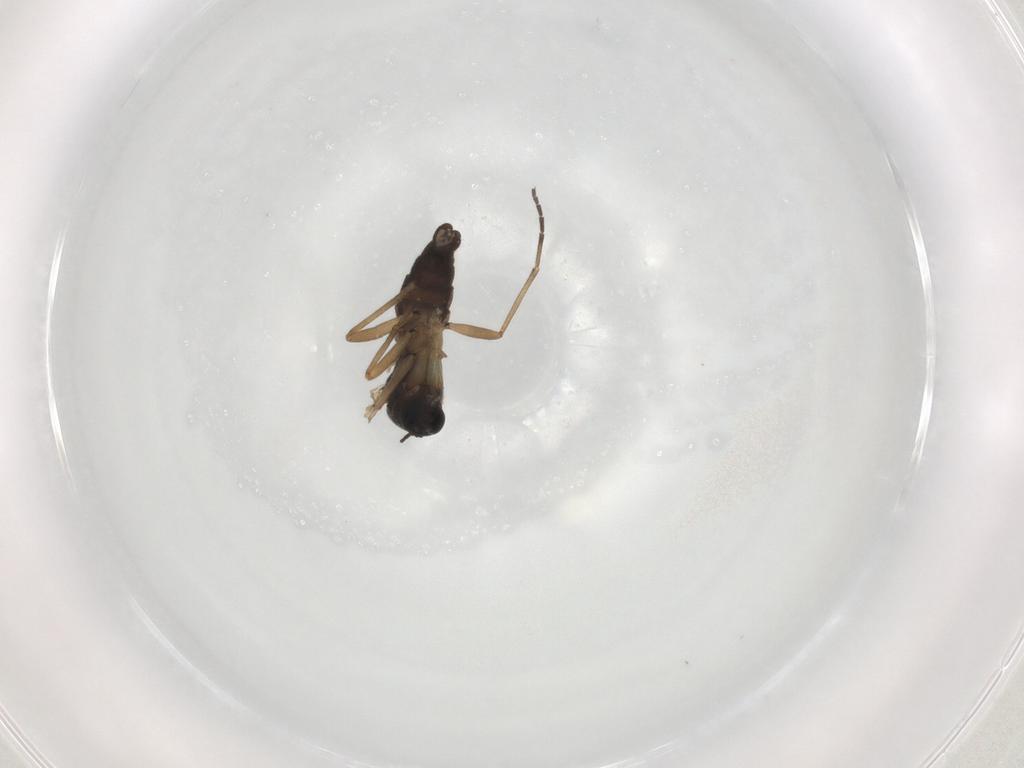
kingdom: Animalia
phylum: Arthropoda
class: Insecta
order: Diptera
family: Sciaridae
